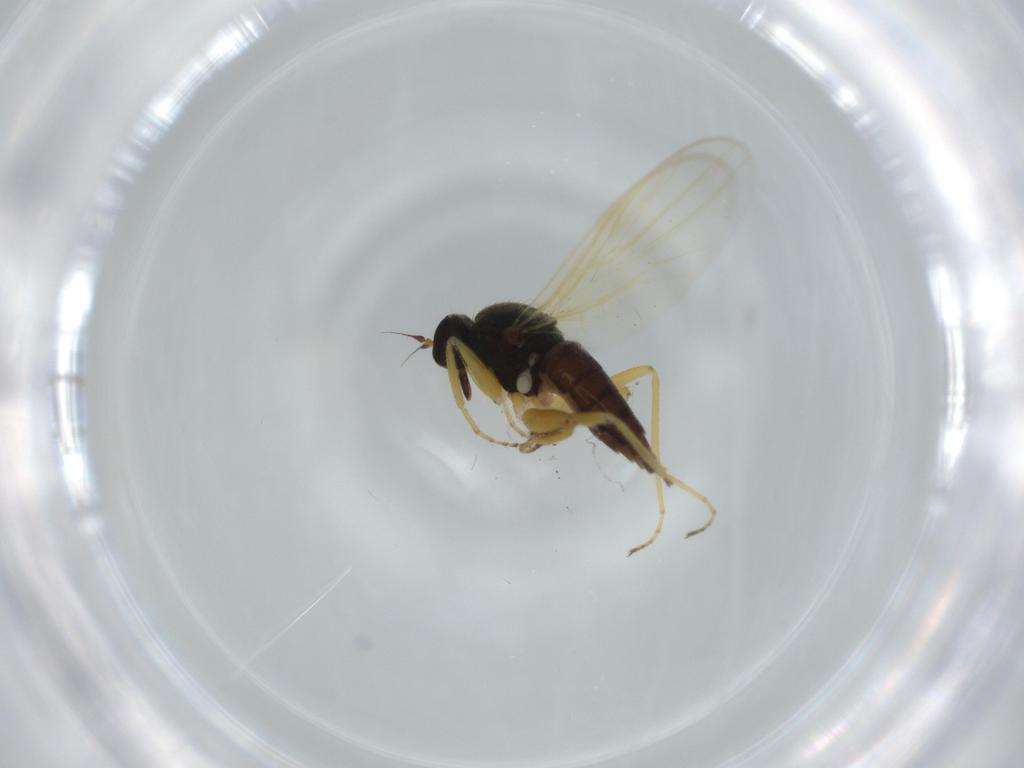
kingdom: Animalia
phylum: Arthropoda
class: Insecta
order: Diptera
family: Hybotidae
